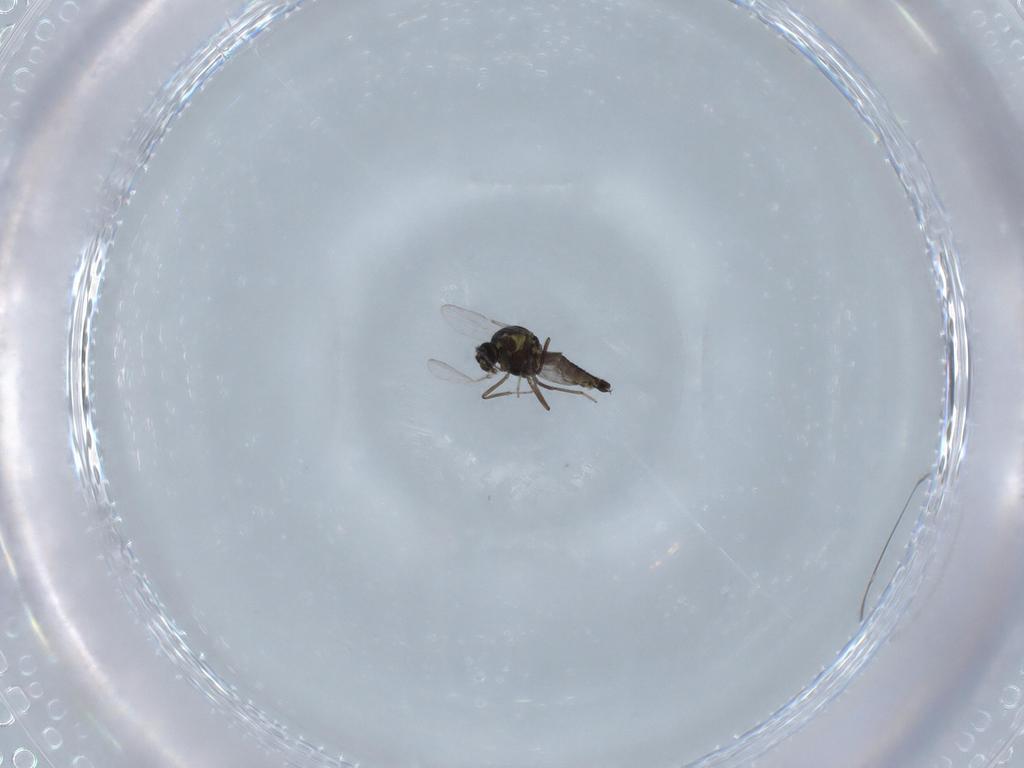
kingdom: Animalia
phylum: Arthropoda
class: Insecta
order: Diptera
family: Ceratopogonidae
